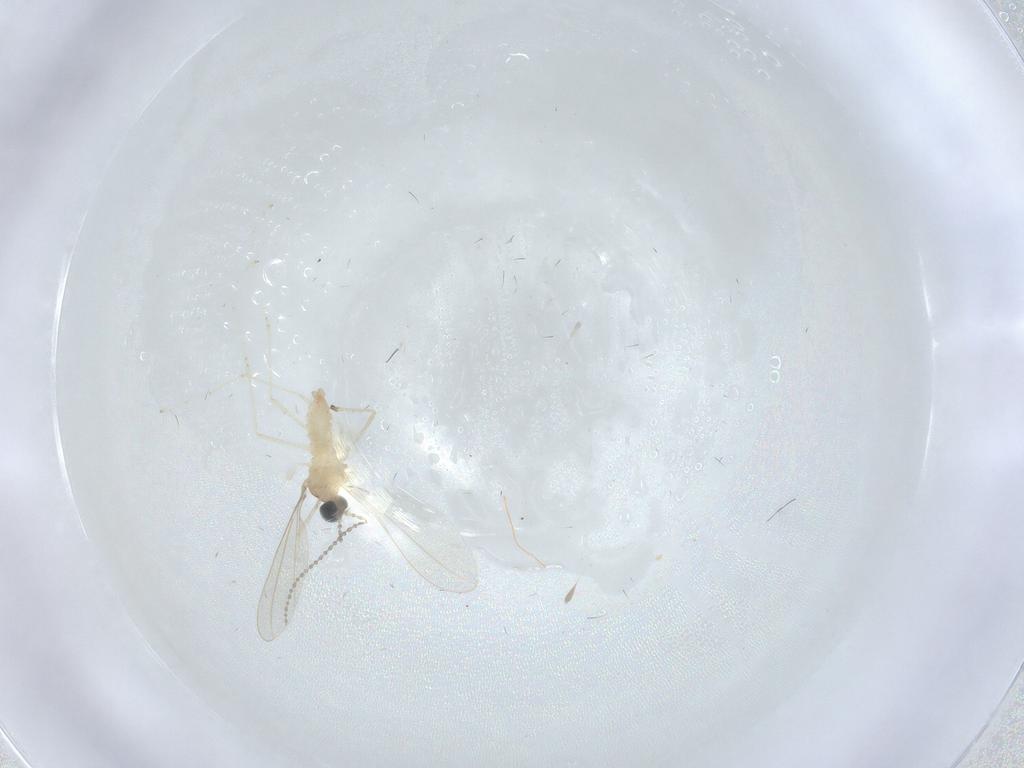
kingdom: Animalia
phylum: Arthropoda
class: Insecta
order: Diptera
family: Cecidomyiidae
